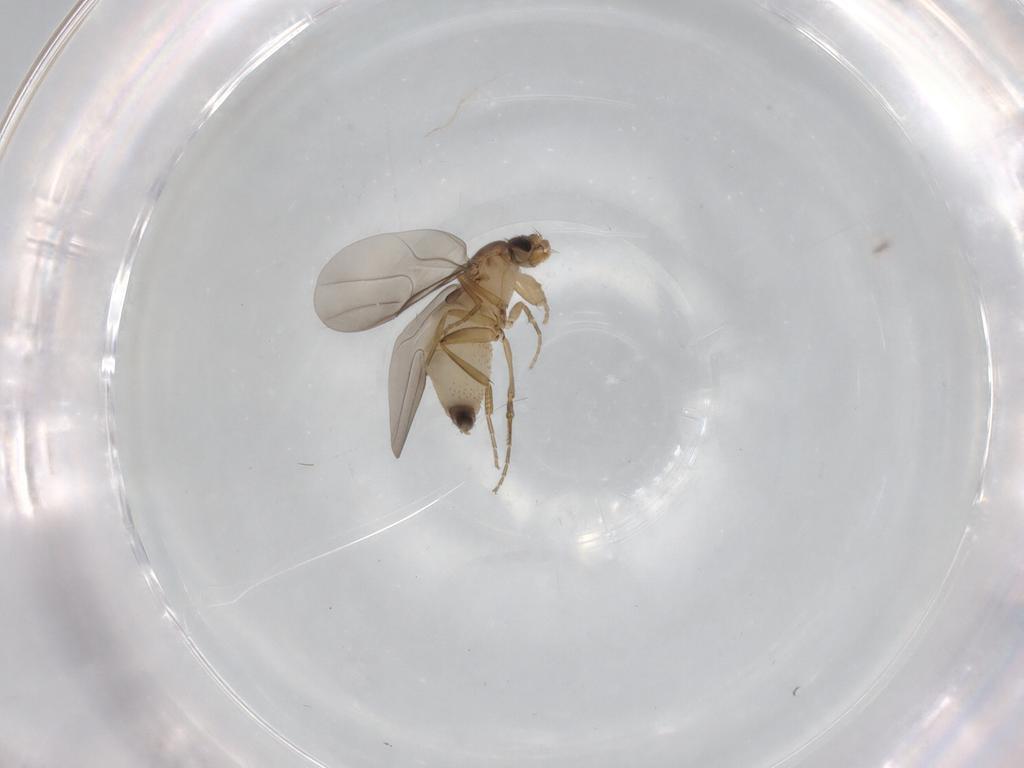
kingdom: Animalia
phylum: Arthropoda
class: Insecta
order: Diptera
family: Phoridae
